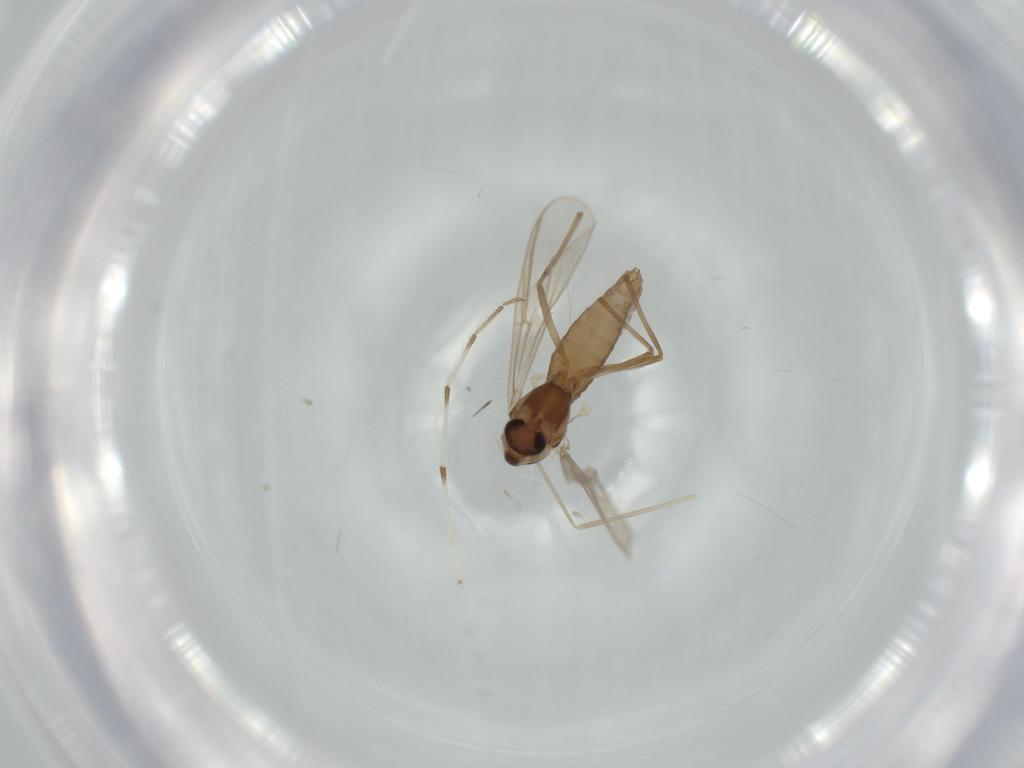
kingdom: Animalia
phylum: Arthropoda
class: Insecta
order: Diptera
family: Chironomidae
